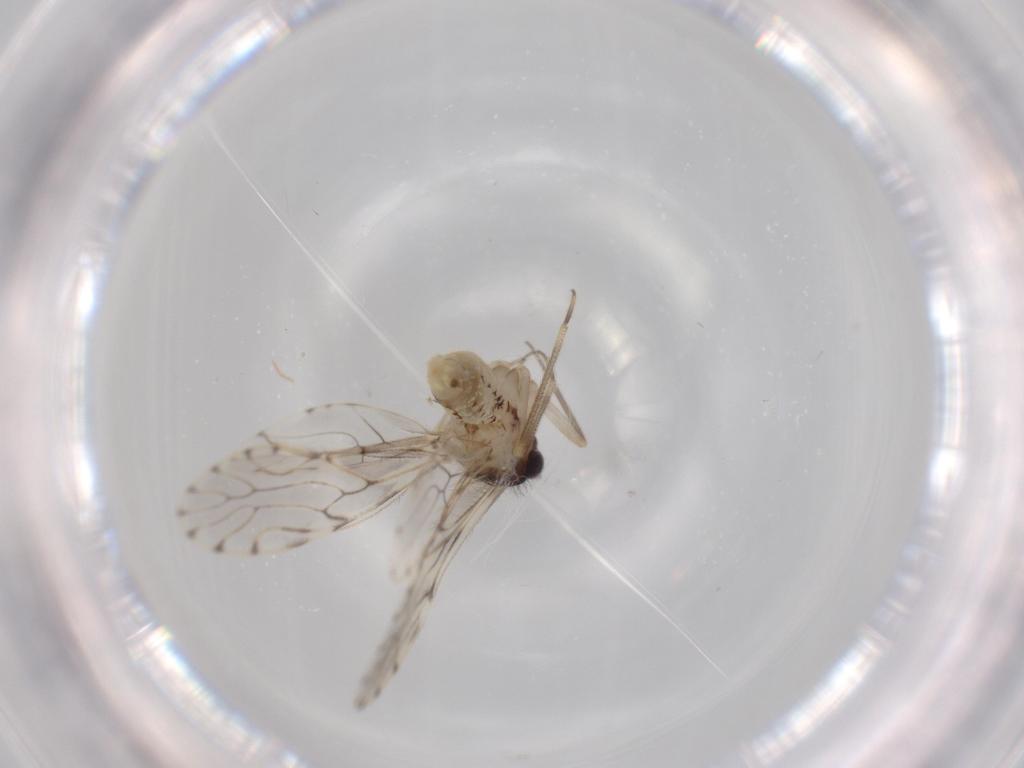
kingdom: Animalia
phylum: Arthropoda
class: Insecta
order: Psocodea
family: Epipsocidae
